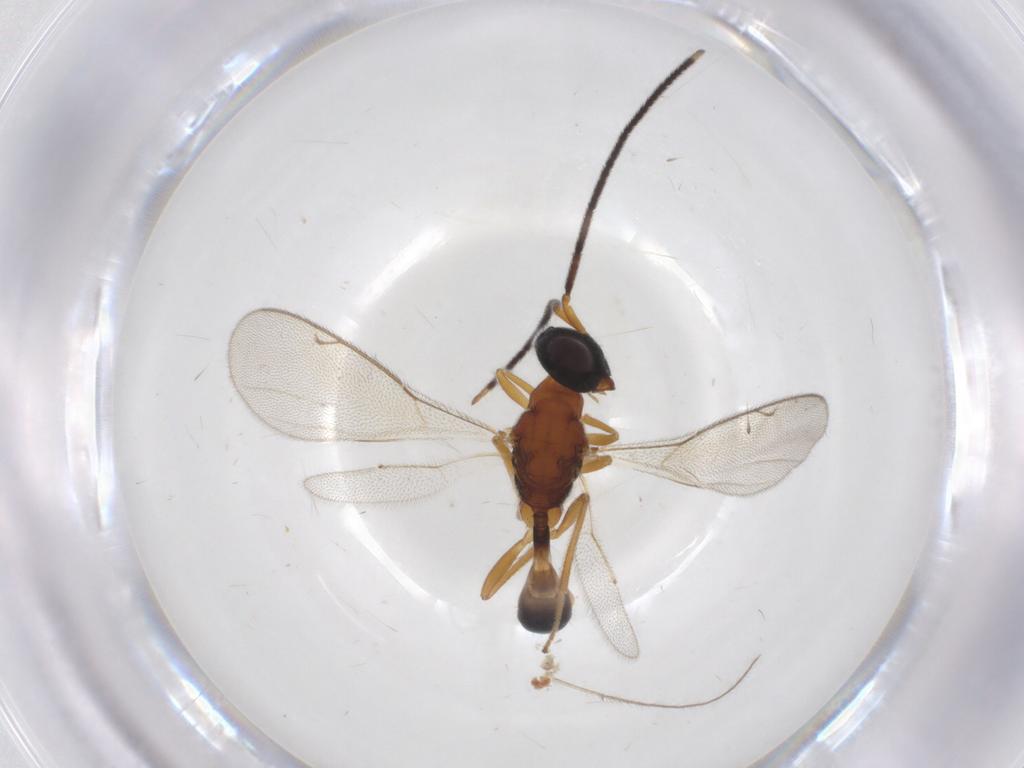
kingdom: Animalia
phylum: Arthropoda
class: Insecta
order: Hymenoptera
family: Pteromalidae
